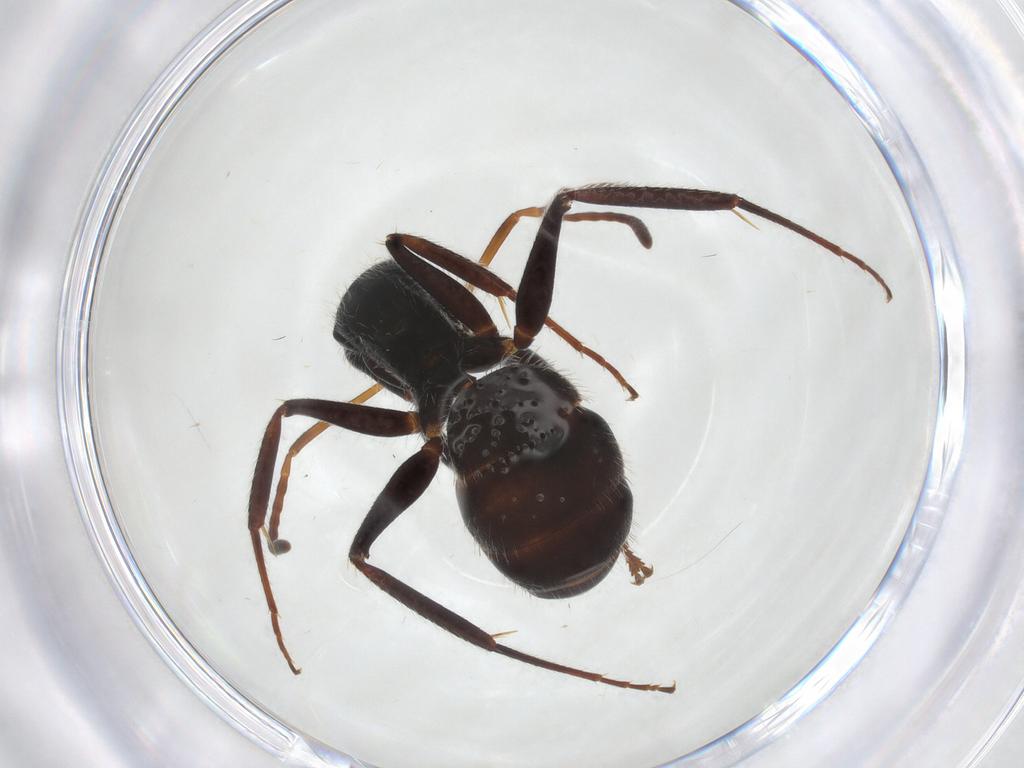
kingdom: Animalia
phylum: Arthropoda
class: Insecta
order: Hymenoptera
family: Formicidae
